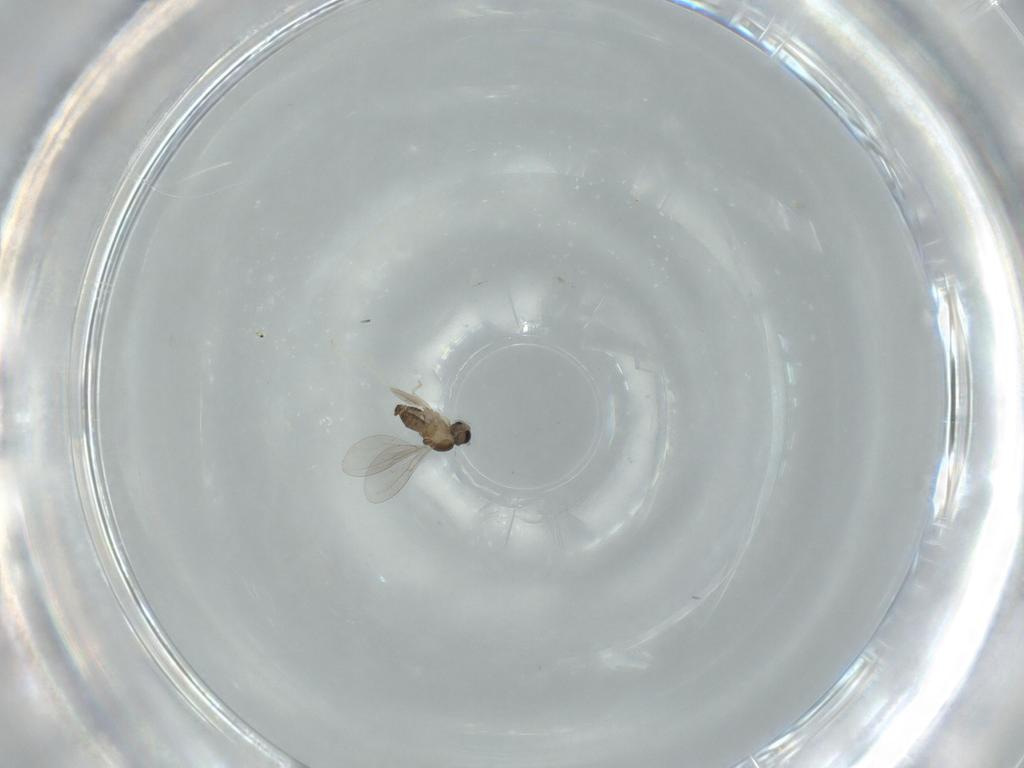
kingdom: Animalia
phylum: Arthropoda
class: Insecta
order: Diptera
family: Cecidomyiidae
